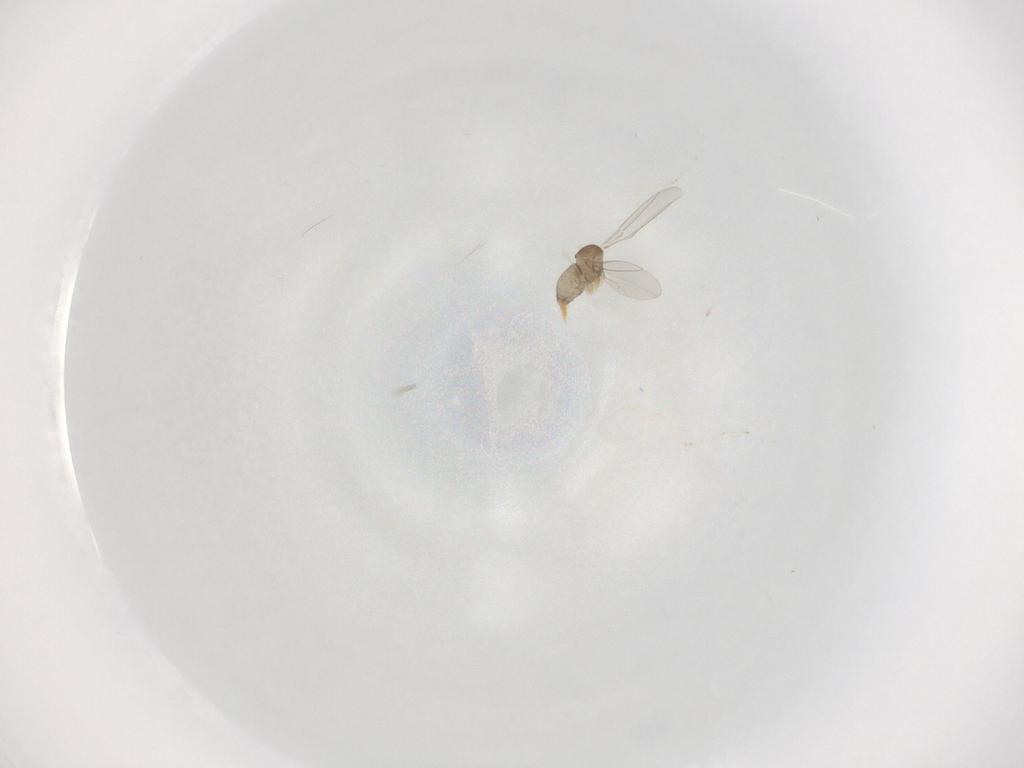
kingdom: Animalia
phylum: Arthropoda
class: Insecta
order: Diptera
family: Cecidomyiidae
